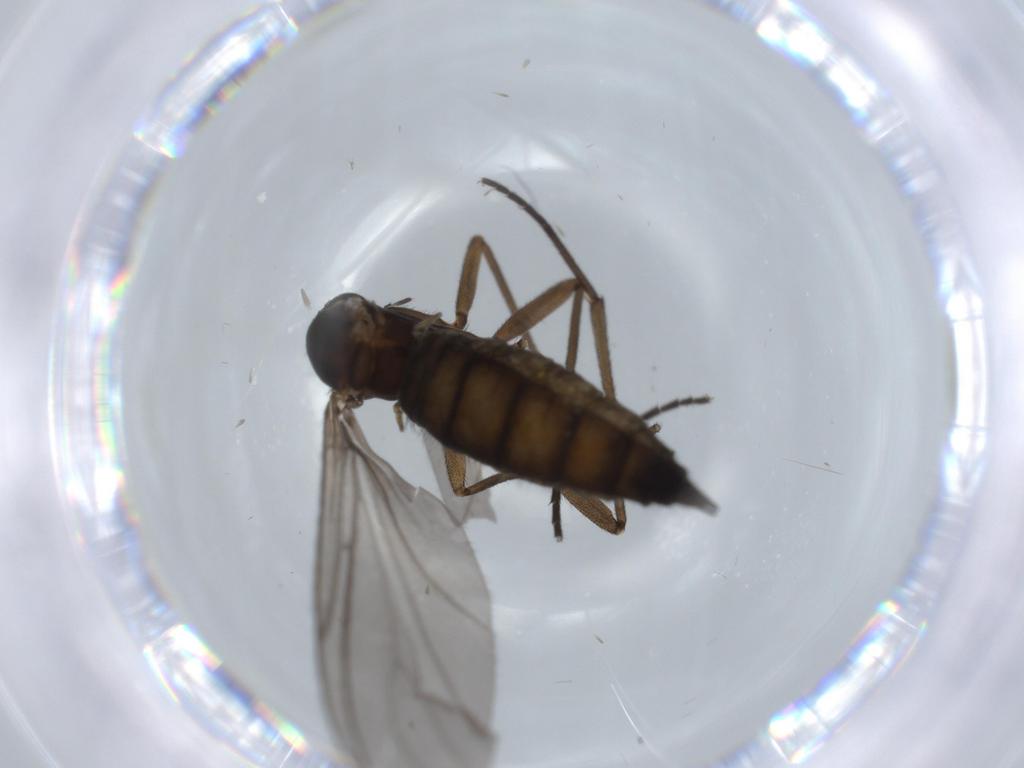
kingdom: Animalia
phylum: Arthropoda
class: Insecta
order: Diptera
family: Sciaridae
